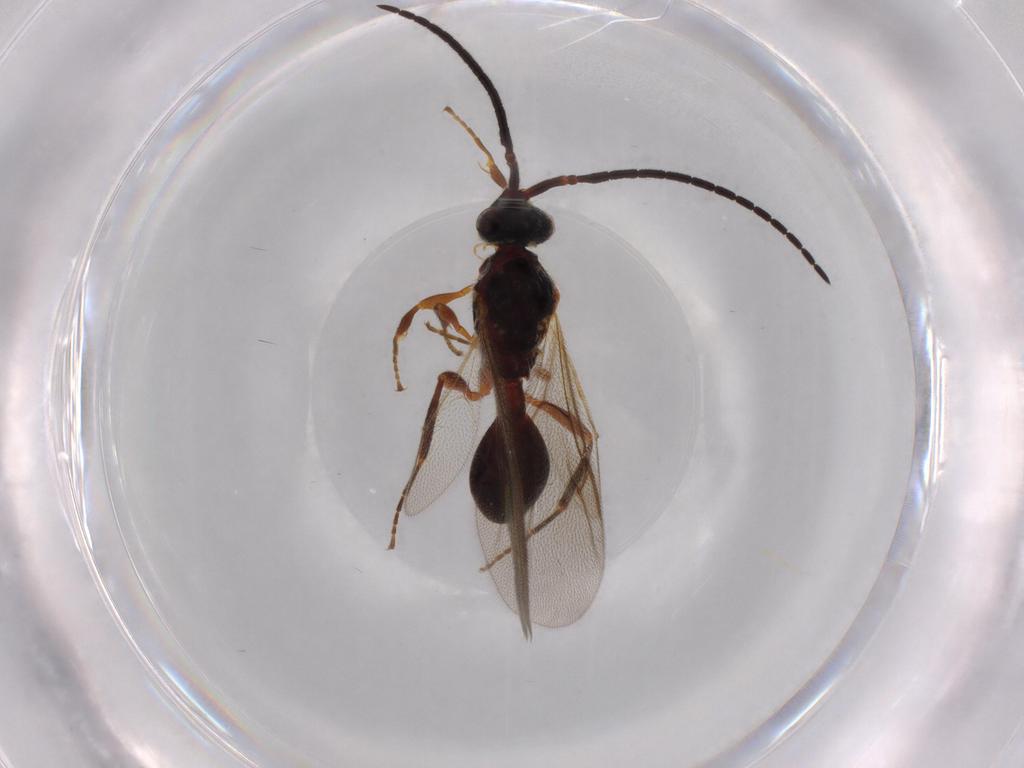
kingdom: Animalia
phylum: Arthropoda
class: Insecta
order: Hymenoptera
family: Diapriidae
